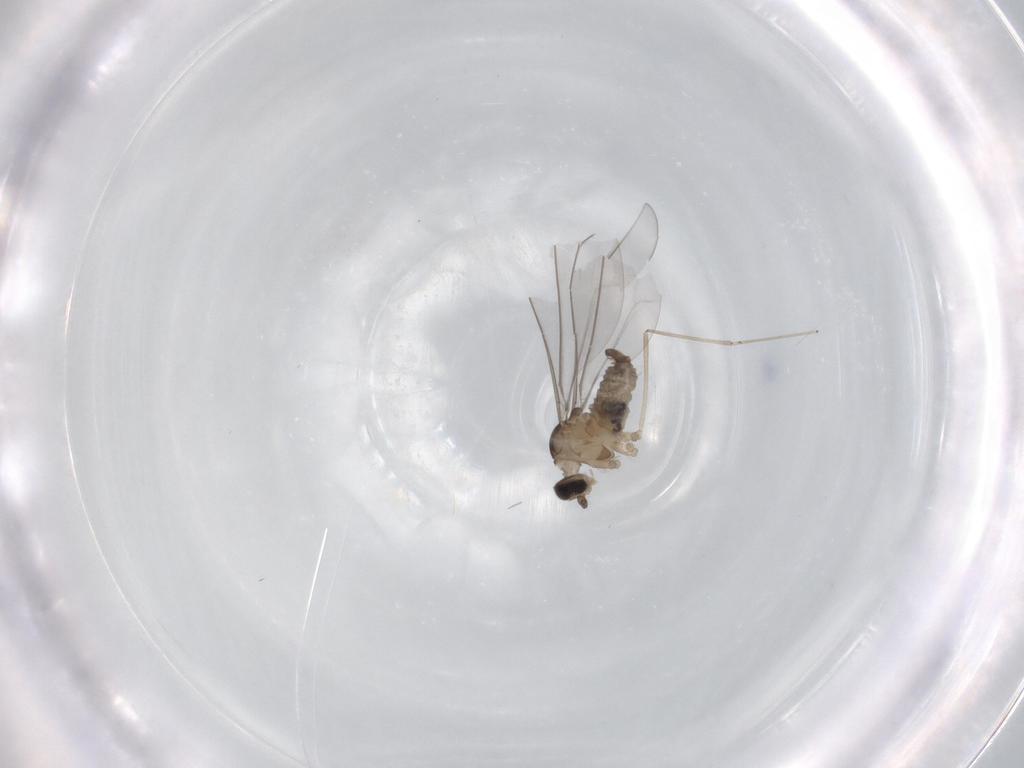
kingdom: Animalia
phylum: Arthropoda
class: Insecta
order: Diptera
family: Cecidomyiidae
